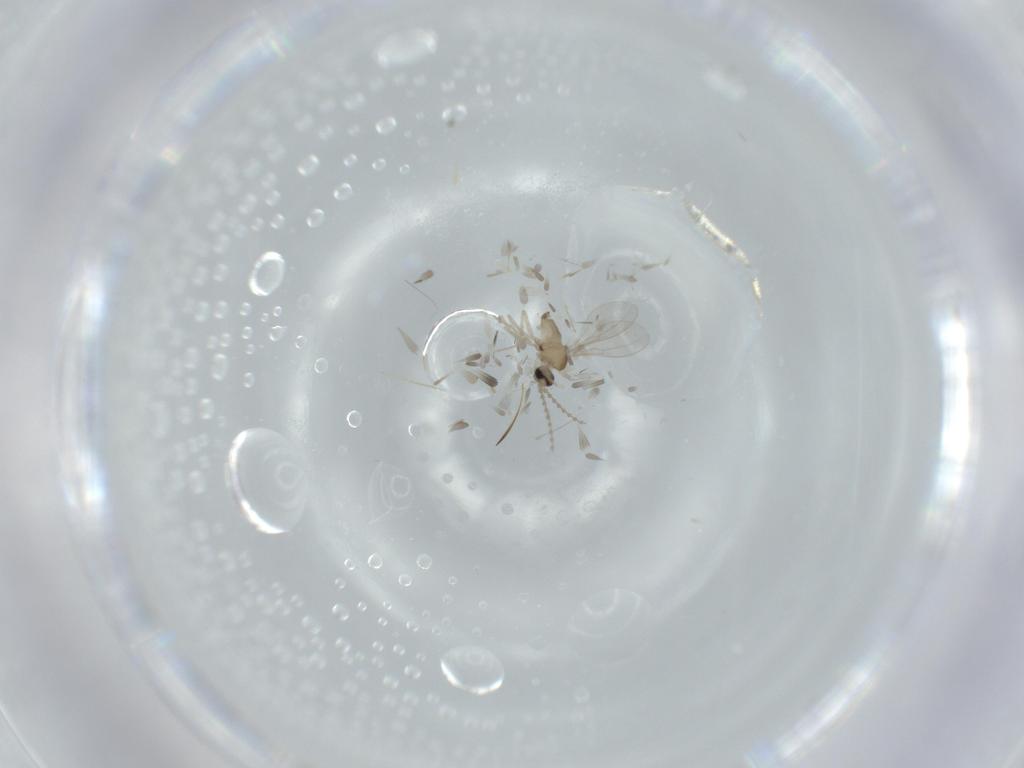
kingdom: Animalia
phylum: Arthropoda
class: Insecta
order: Diptera
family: Cecidomyiidae
